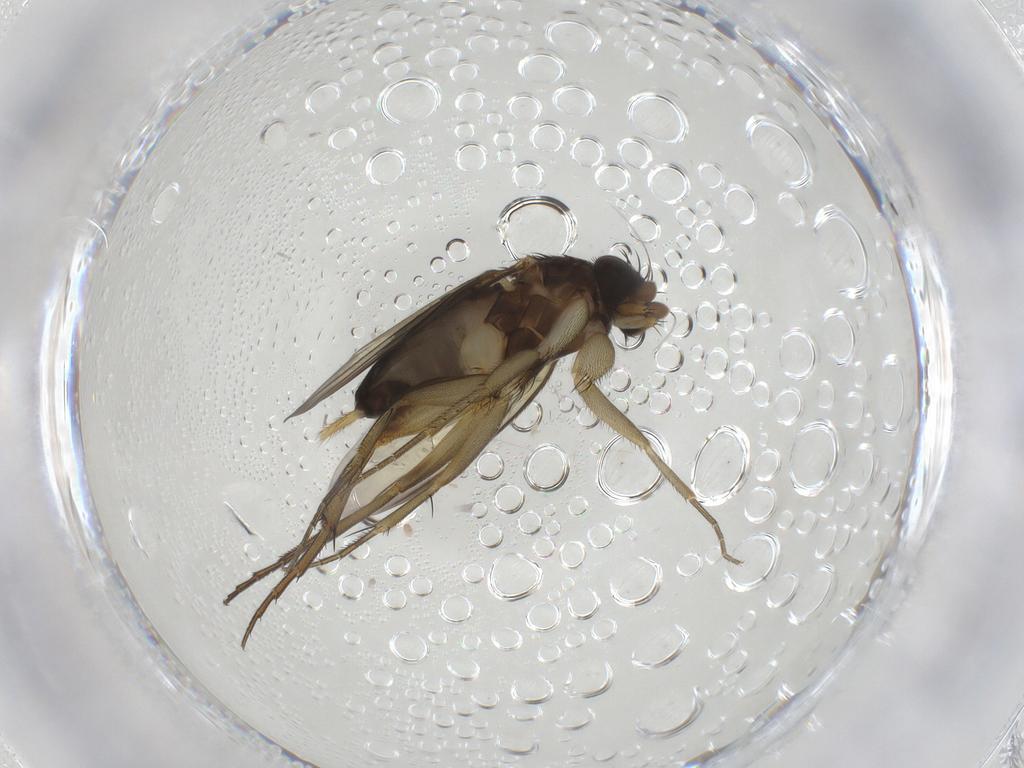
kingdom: Animalia
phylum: Arthropoda
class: Insecta
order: Diptera
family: Phoridae
